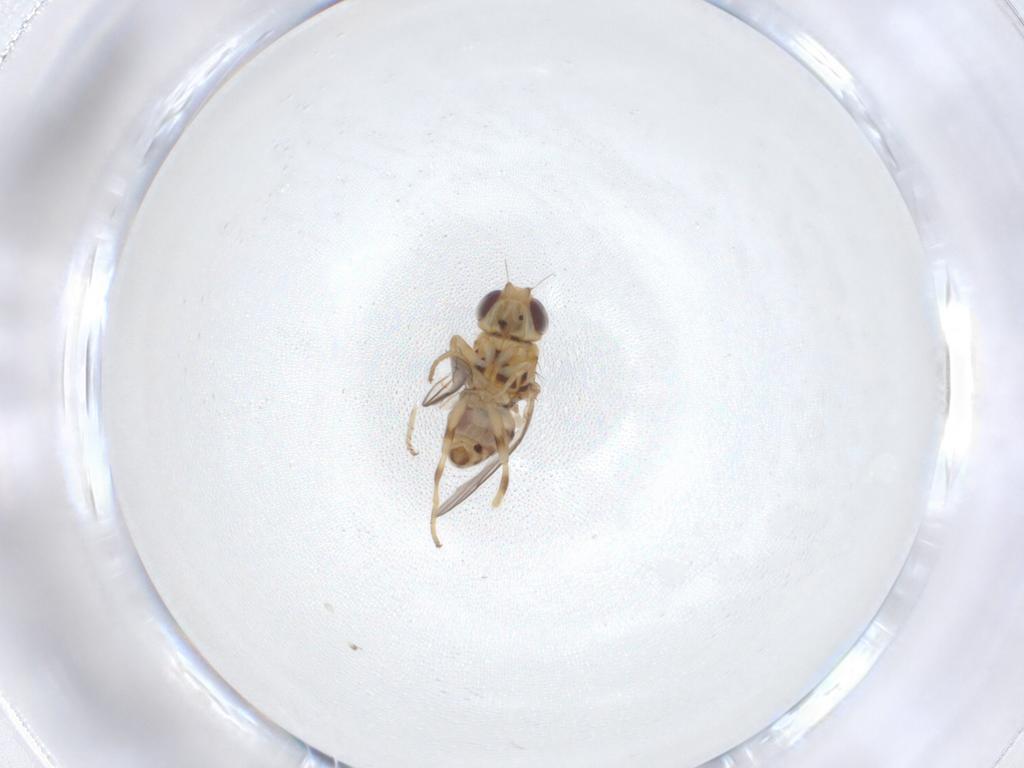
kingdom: Animalia
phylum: Arthropoda
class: Insecta
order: Diptera
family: Chloropidae
